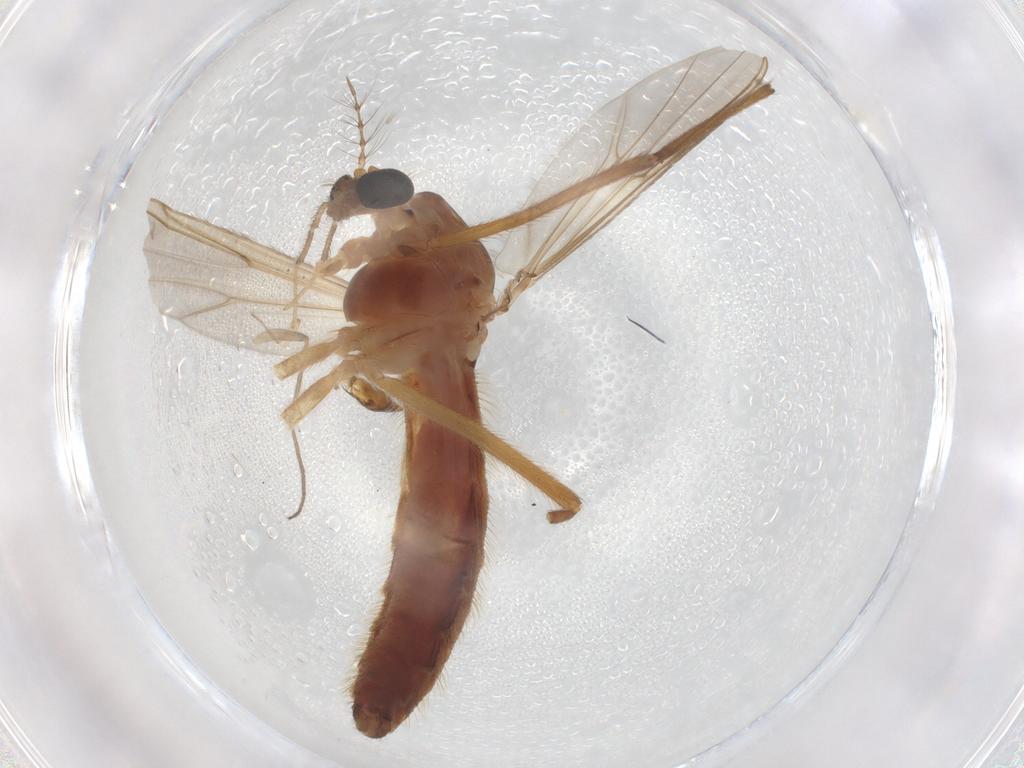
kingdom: Animalia
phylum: Arthropoda
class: Insecta
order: Diptera
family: Chironomidae
